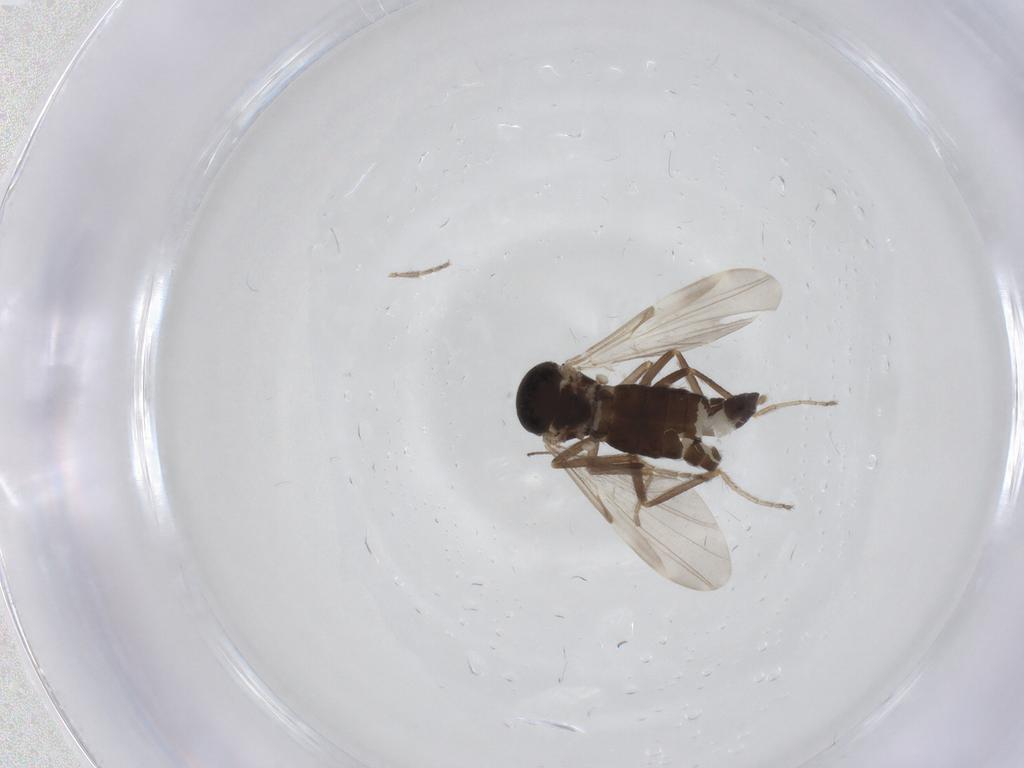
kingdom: Animalia
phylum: Arthropoda
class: Insecta
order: Diptera
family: Ceratopogonidae
